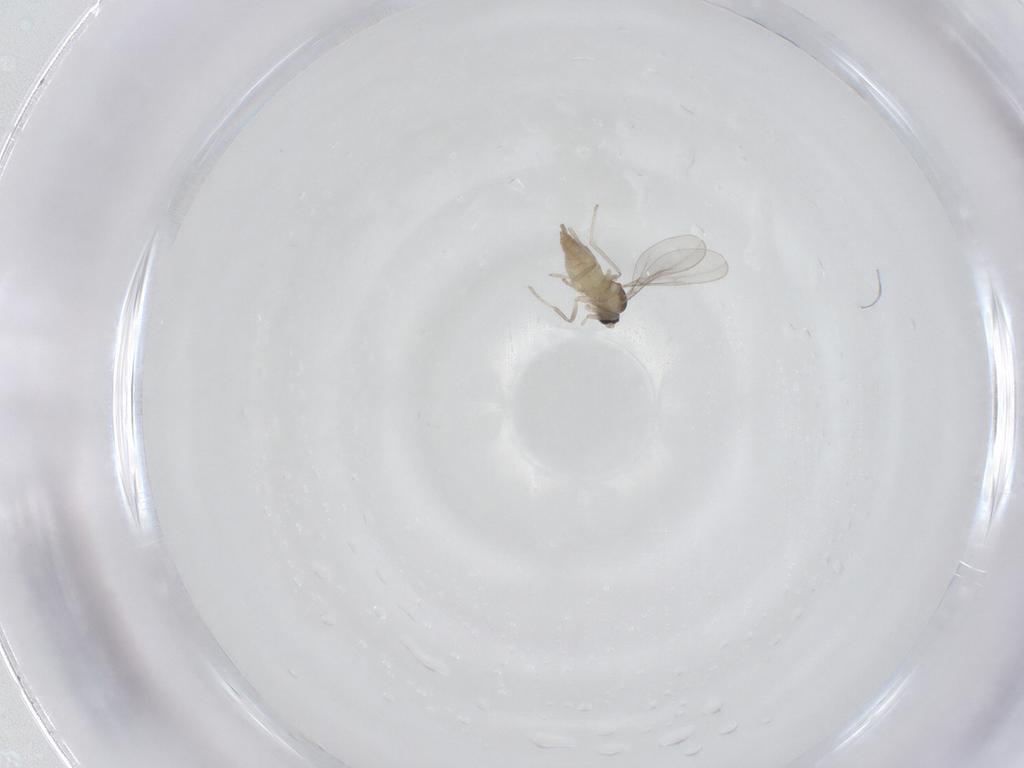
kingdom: Animalia
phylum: Arthropoda
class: Insecta
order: Diptera
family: Cecidomyiidae
